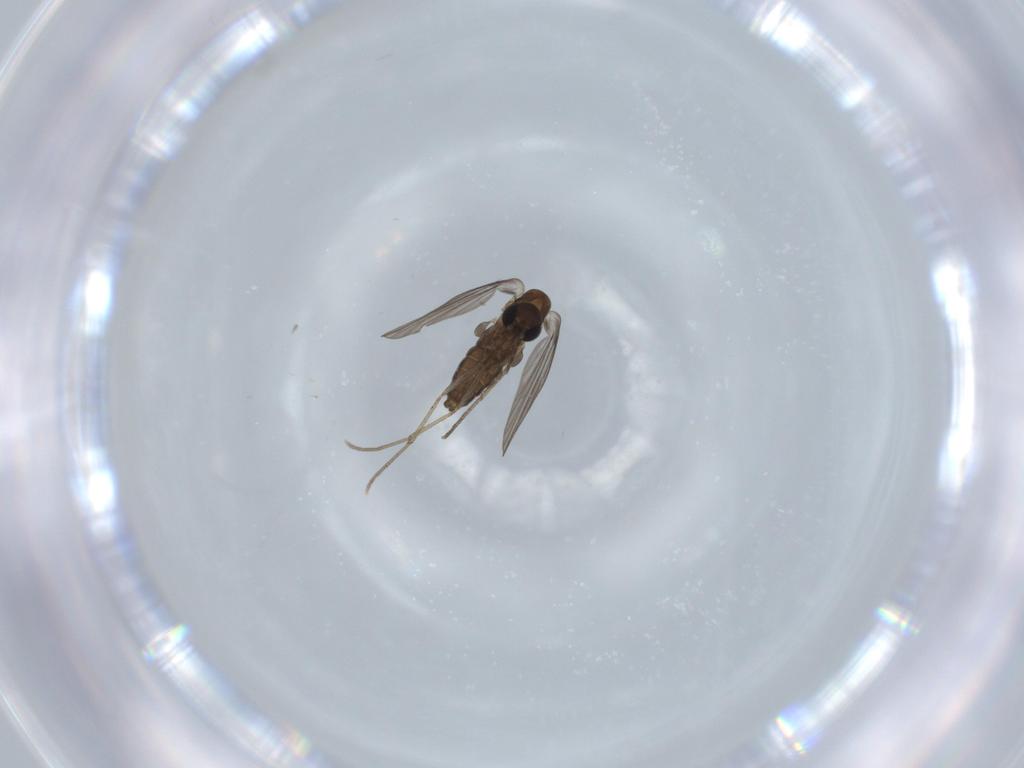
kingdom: Animalia
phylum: Arthropoda
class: Insecta
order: Diptera
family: Psychodidae
